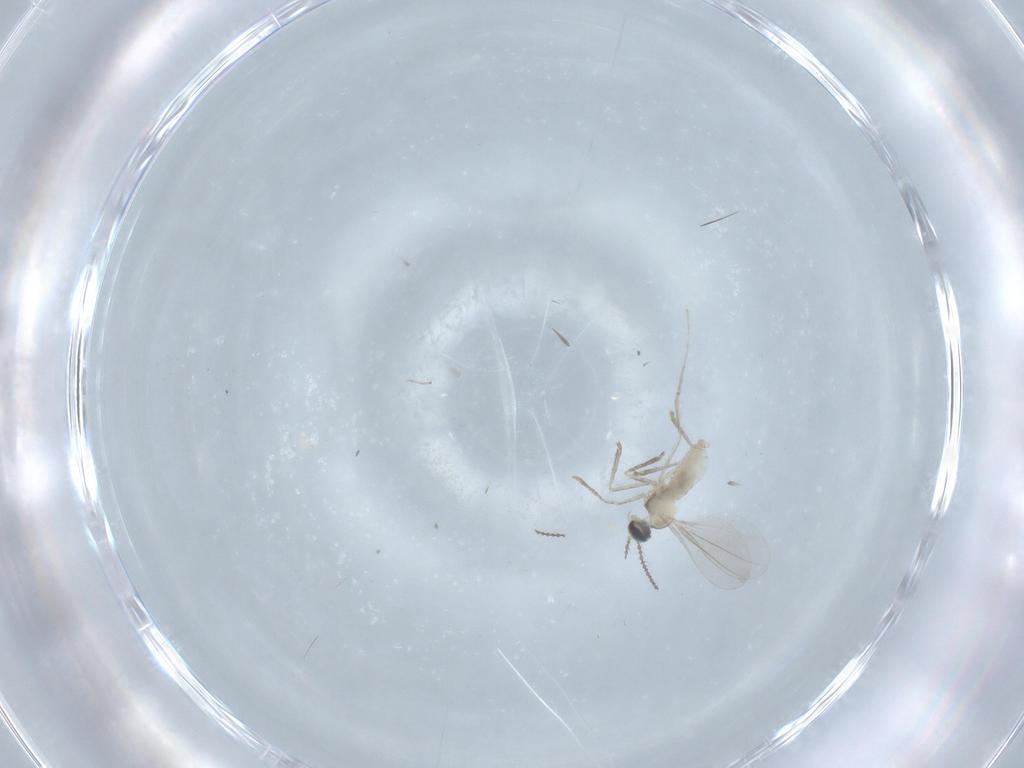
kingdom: Animalia
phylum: Arthropoda
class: Insecta
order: Diptera
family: Cecidomyiidae
